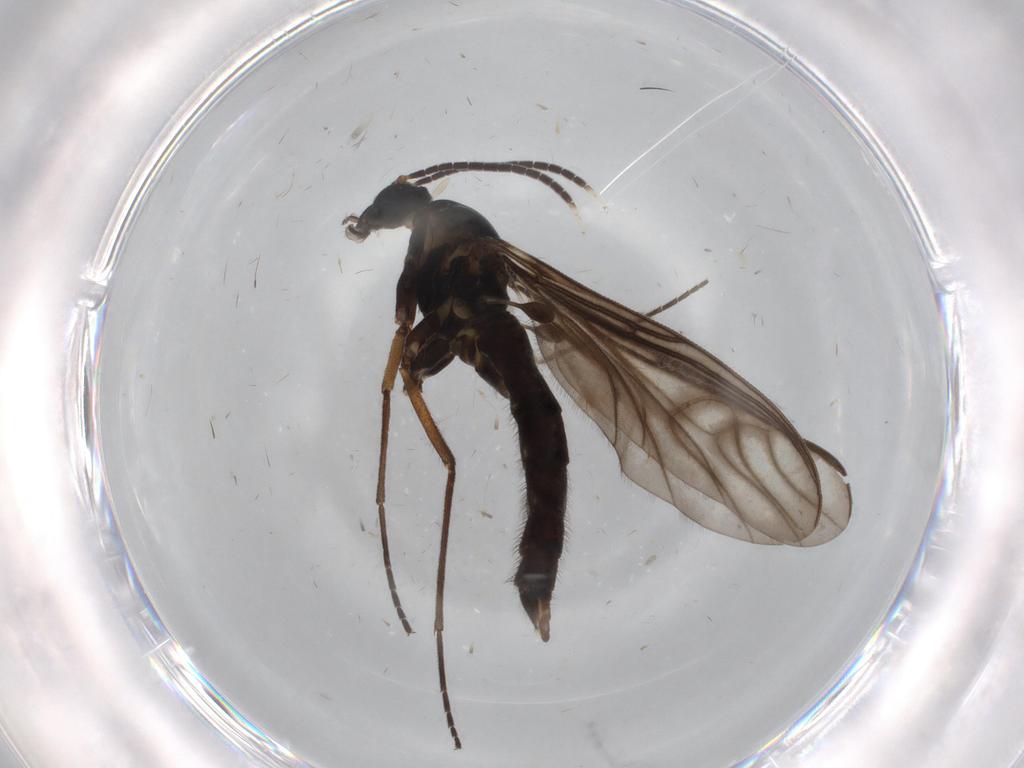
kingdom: Animalia
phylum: Arthropoda
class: Insecta
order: Diptera
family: Sciaridae
